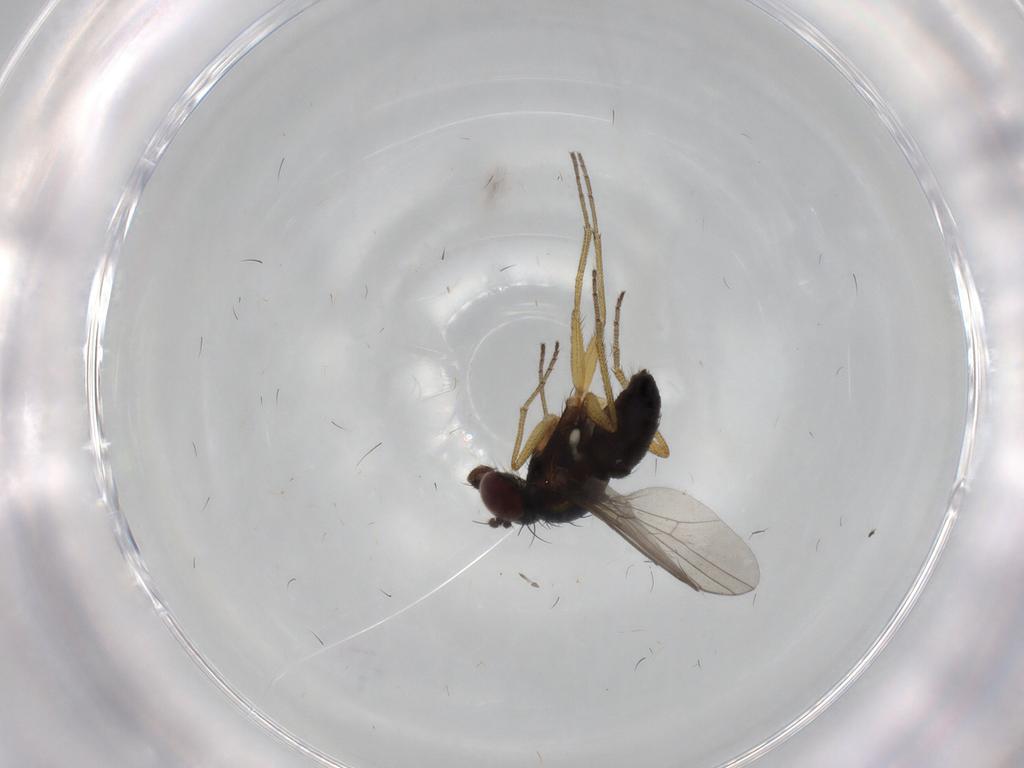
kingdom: Animalia
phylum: Arthropoda
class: Insecta
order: Diptera
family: Dolichopodidae
